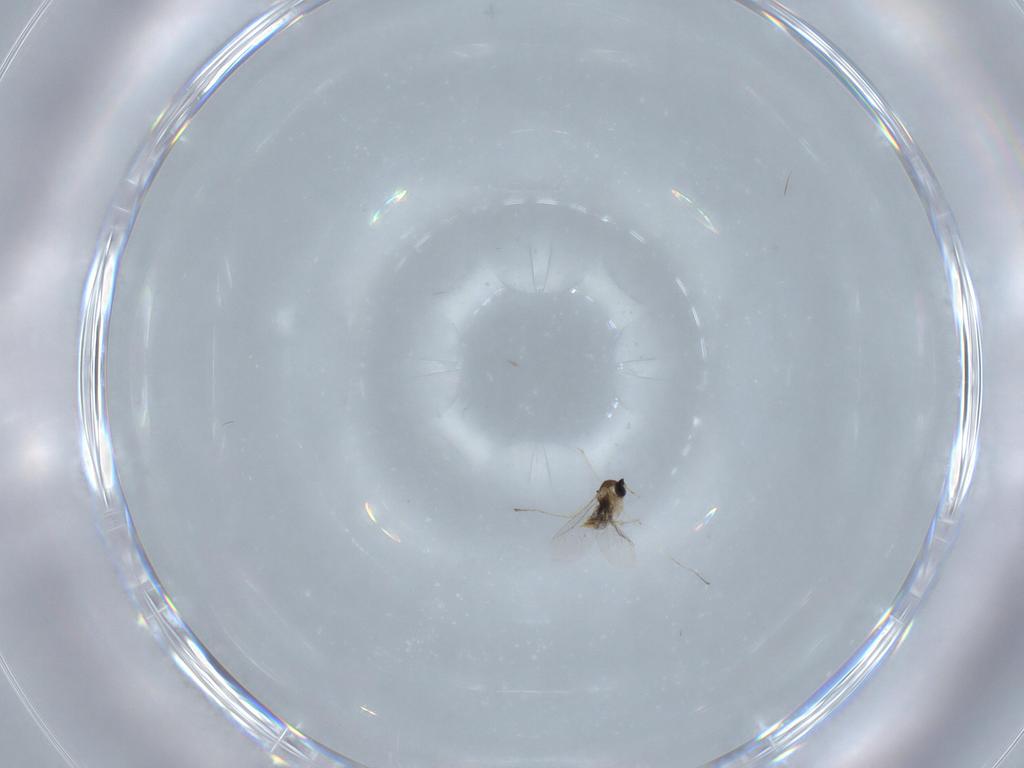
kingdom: Animalia
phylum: Arthropoda
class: Insecta
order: Diptera
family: Cecidomyiidae
